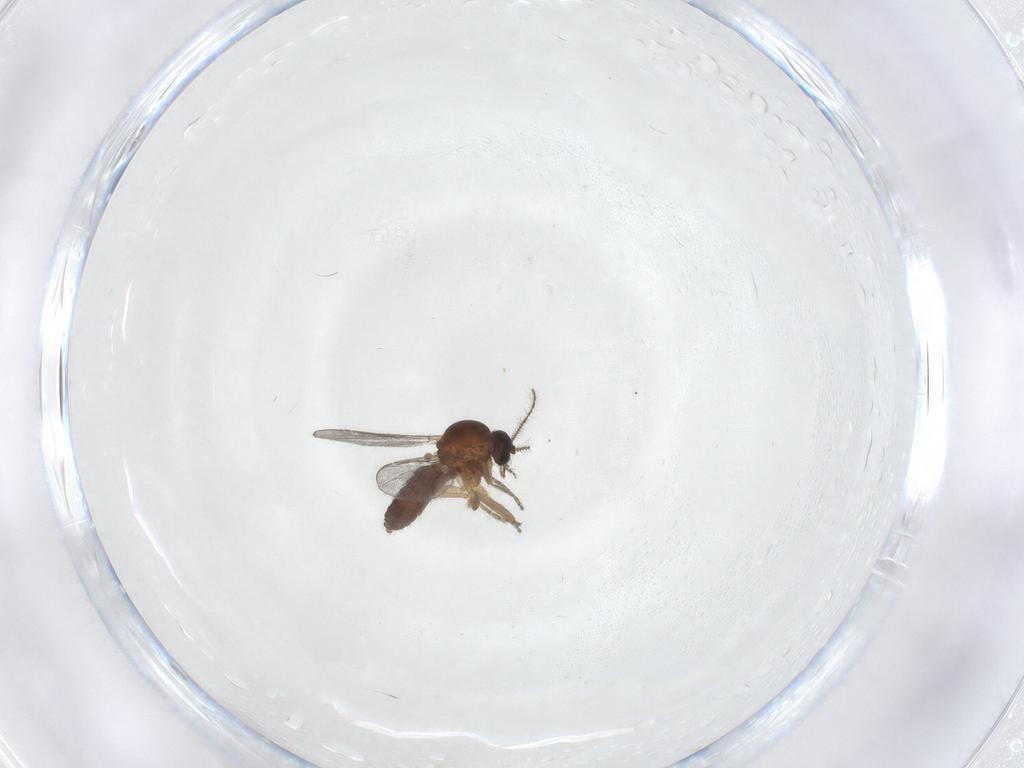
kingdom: Animalia
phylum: Arthropoda
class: Insecta
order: Diptera
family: Ceratopogonidae
